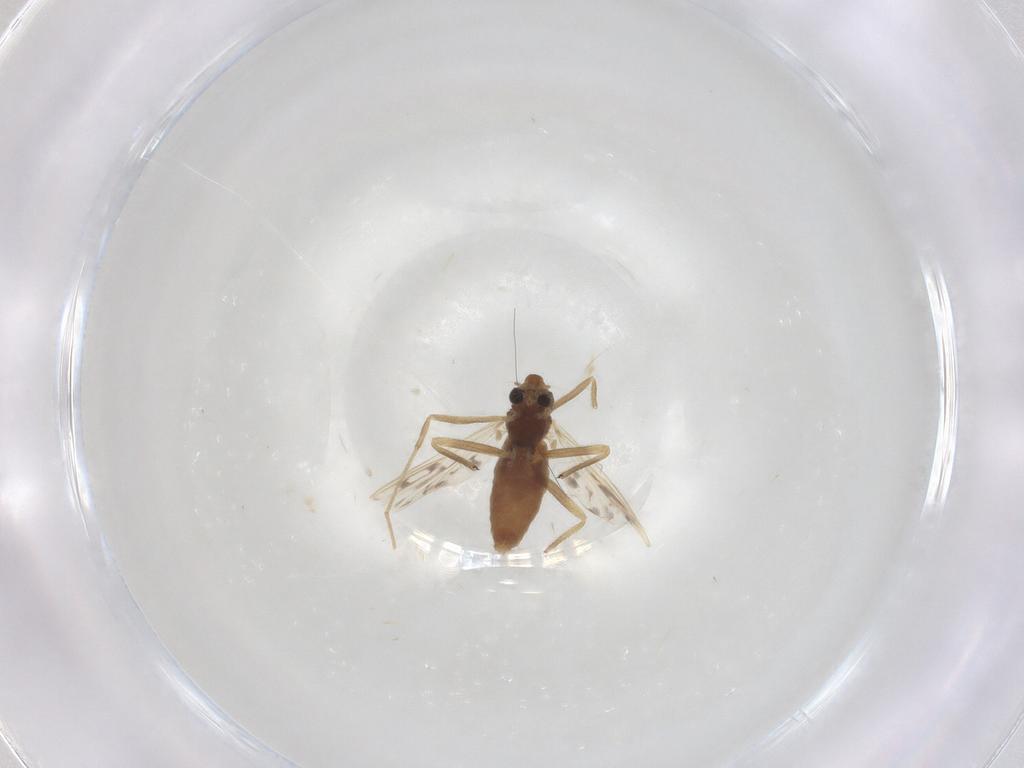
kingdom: Animalia
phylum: Arthropoda
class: Insecta
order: Diptera
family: Chironomidae
